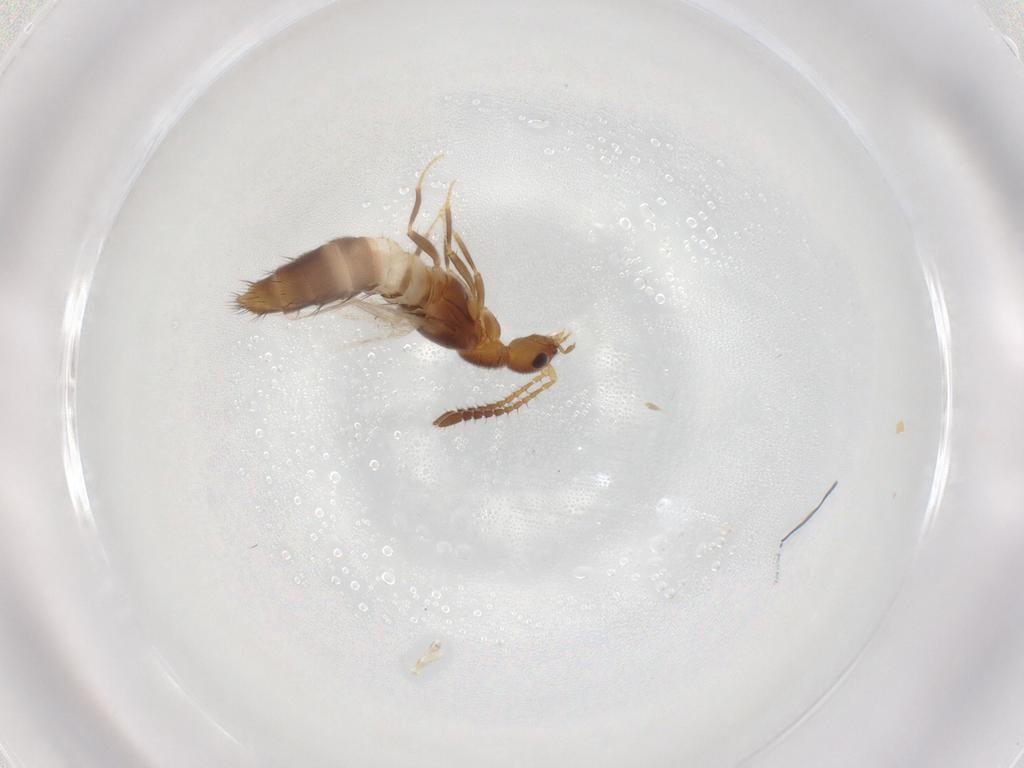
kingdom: Animalia
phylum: Arthropoda
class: Insecta
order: Coleoptera
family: Staphylinidae
